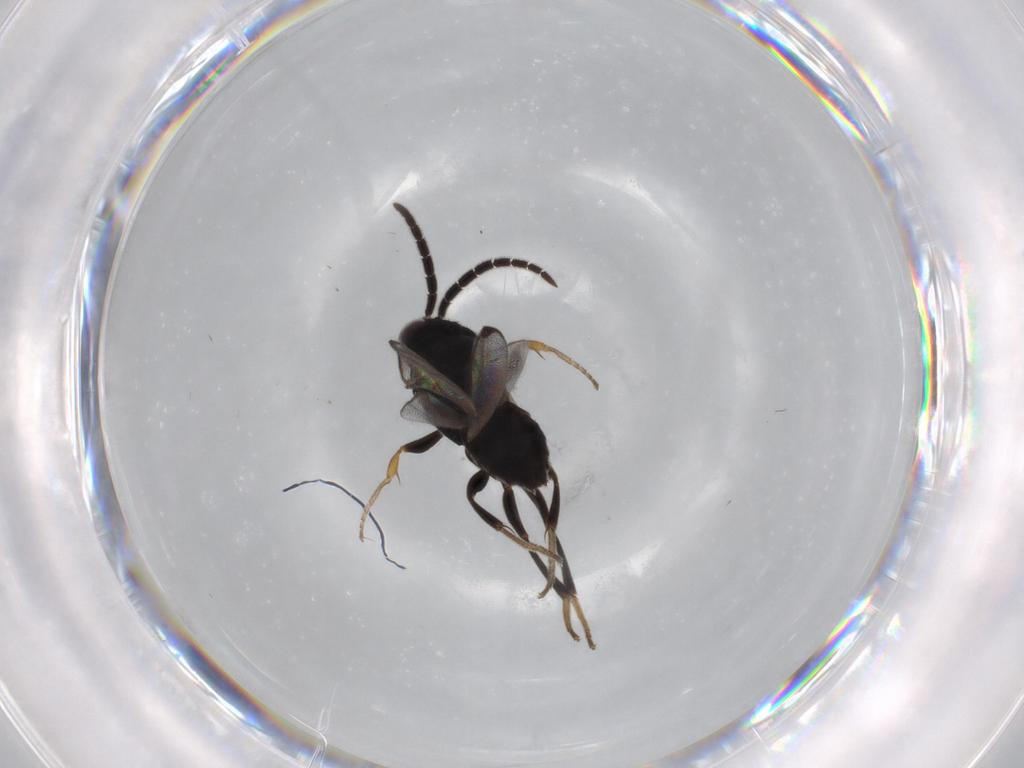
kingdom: Animalia
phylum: Arthropoda
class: Insecta
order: Hymenoptera
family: Dryinidae
